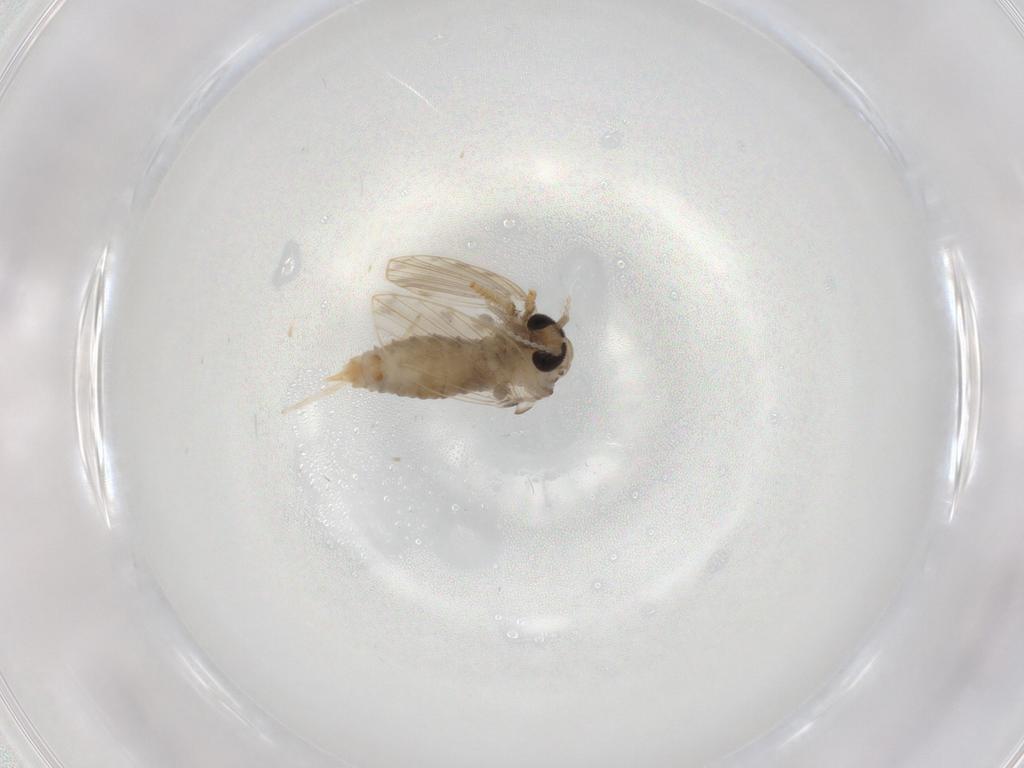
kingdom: Animalia
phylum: Arthropoda
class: Insecta
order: Diptera
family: Psychodidae
